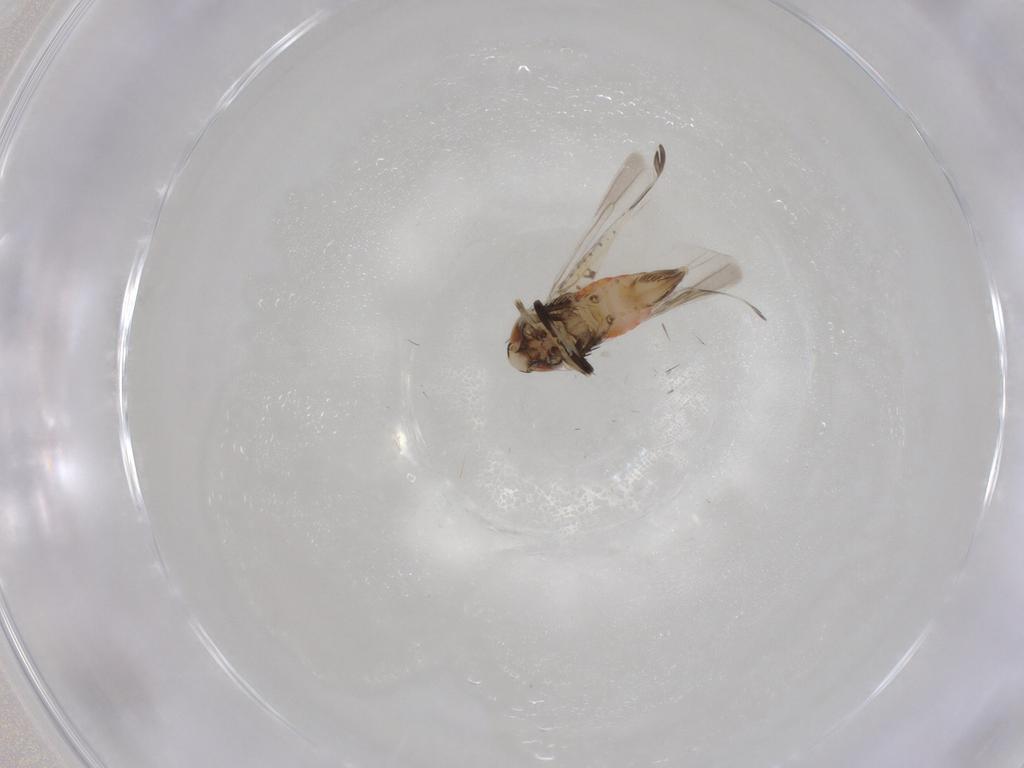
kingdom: Animalia
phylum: Arthropoda
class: Insecta
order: Hemiptera
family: Cicadellidae
